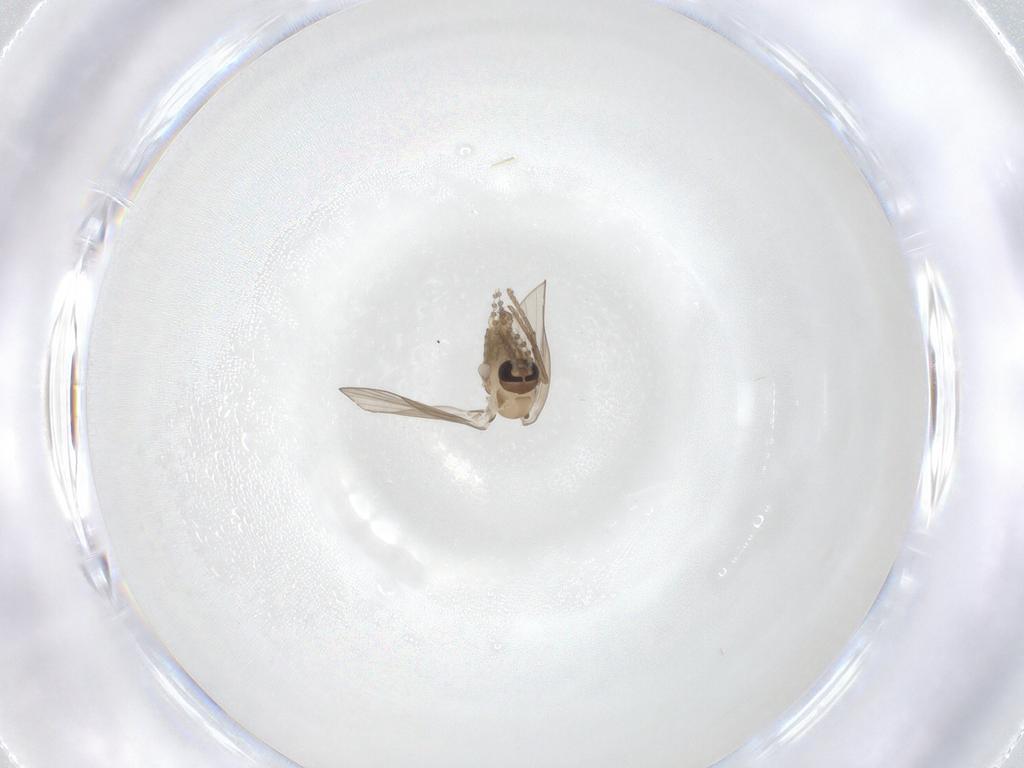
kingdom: Animalia
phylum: Arthropoda
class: Insecta
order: Diptera
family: Psychodidae
